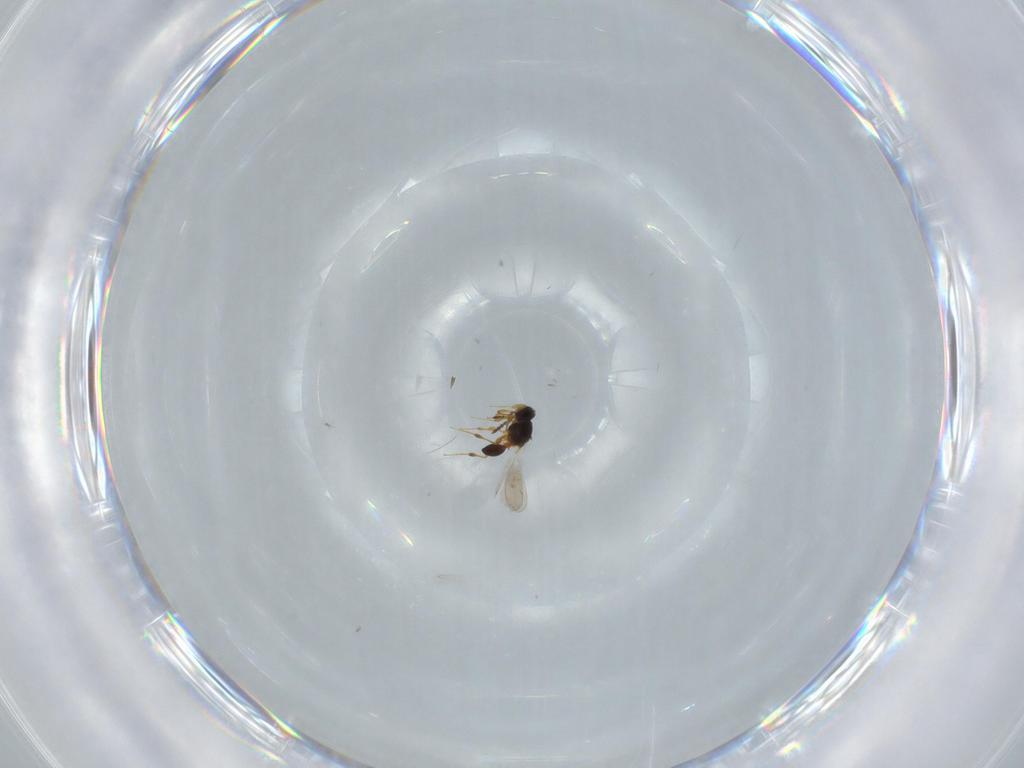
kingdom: Animalia
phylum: Arthropoda
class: Insecta
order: Hymenoptera
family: Platygastridae
